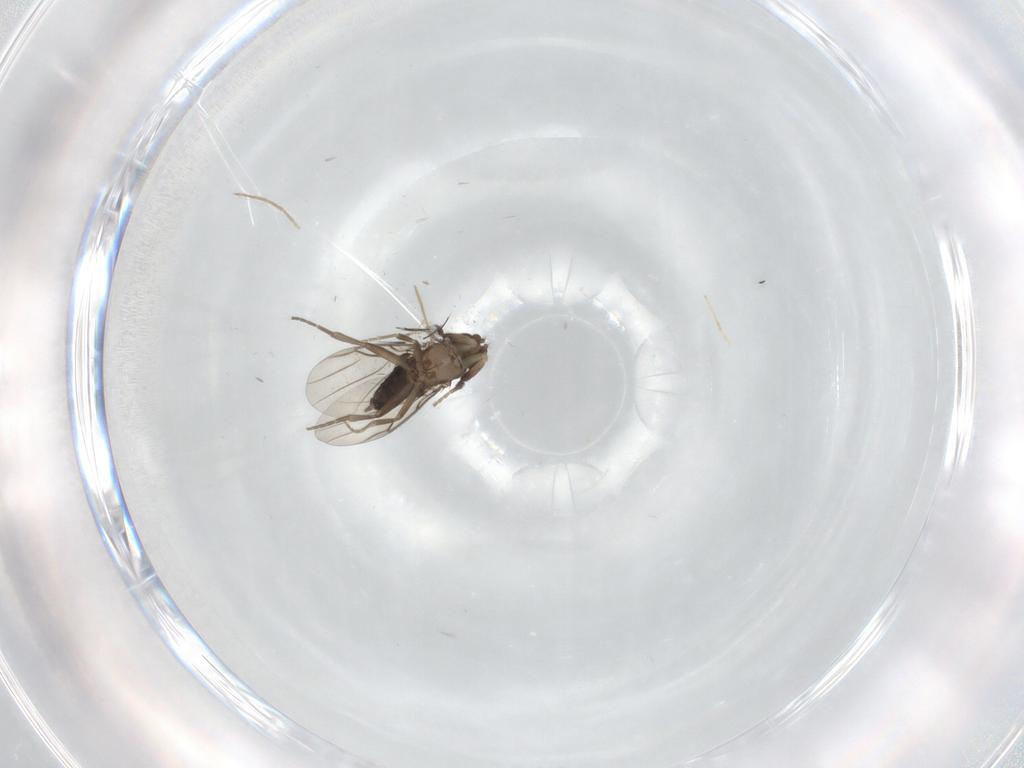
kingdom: Animalia
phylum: Arthropoda
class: Insecta
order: Diptera
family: Phoridae
